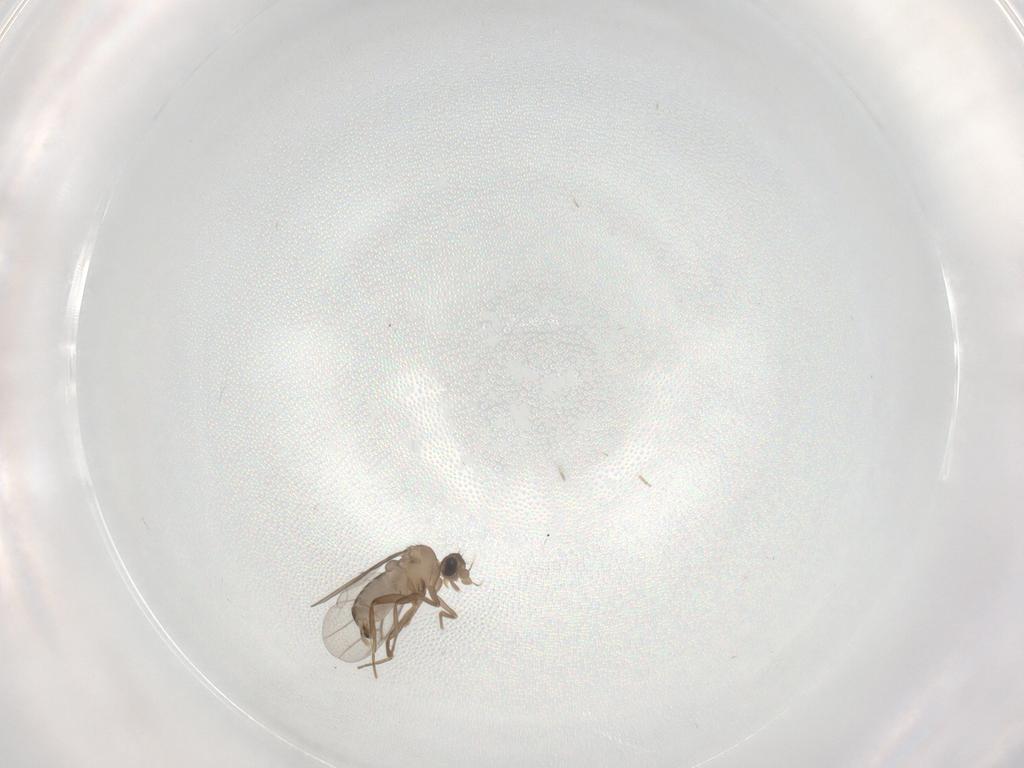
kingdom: Animalia
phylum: Arthropoda
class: Insecta
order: Diptera
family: Chironomidae
